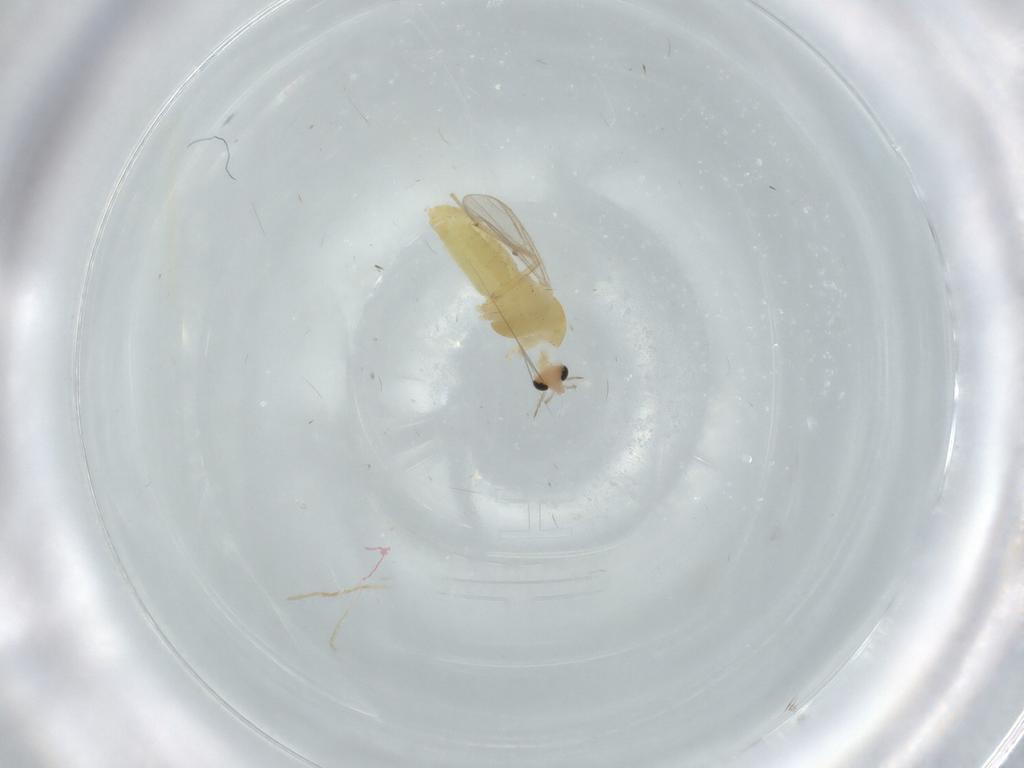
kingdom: Animalia
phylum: Arthropoda
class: Insecta
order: Diptera
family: Chironomidae
